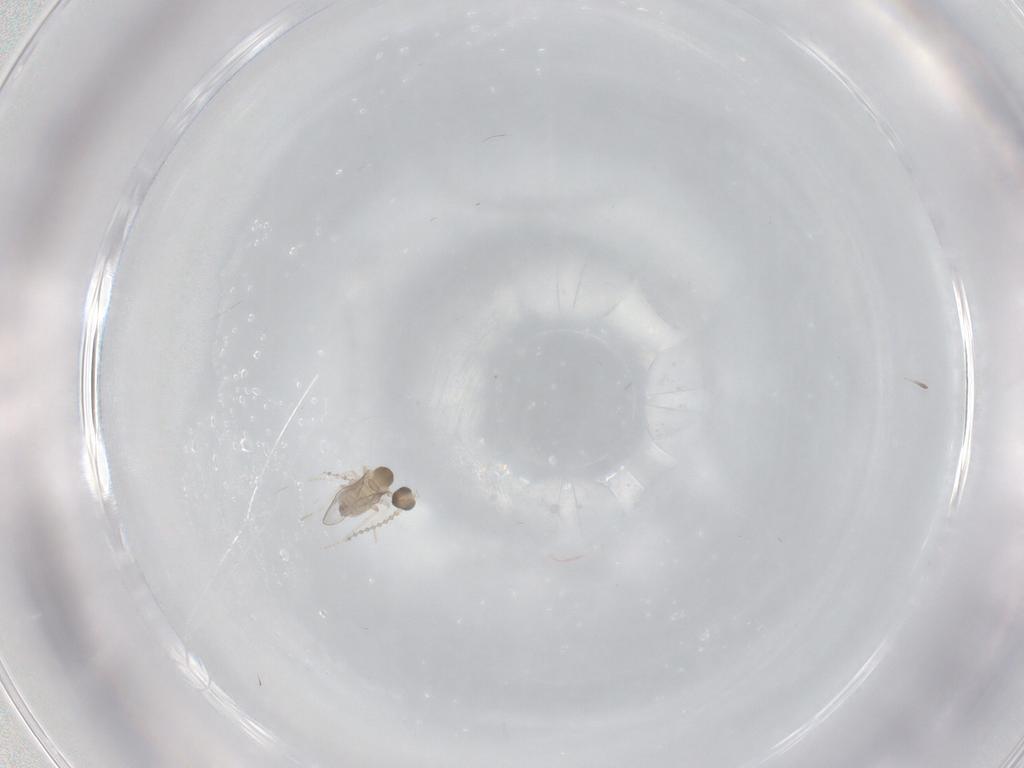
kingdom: Animalia
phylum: Arthropoda
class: Insecta
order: Diptera
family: Cecidomyiidae
